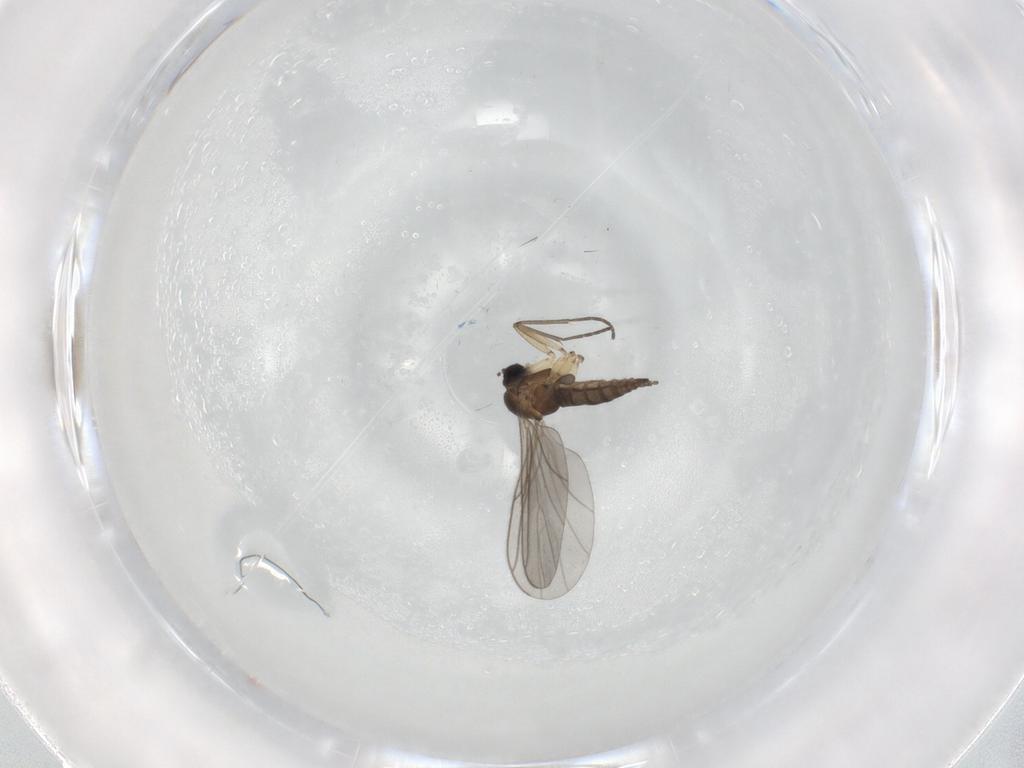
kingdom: Animalia
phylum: Arthropoda
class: Insecta
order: Diptera
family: Sciaridae
